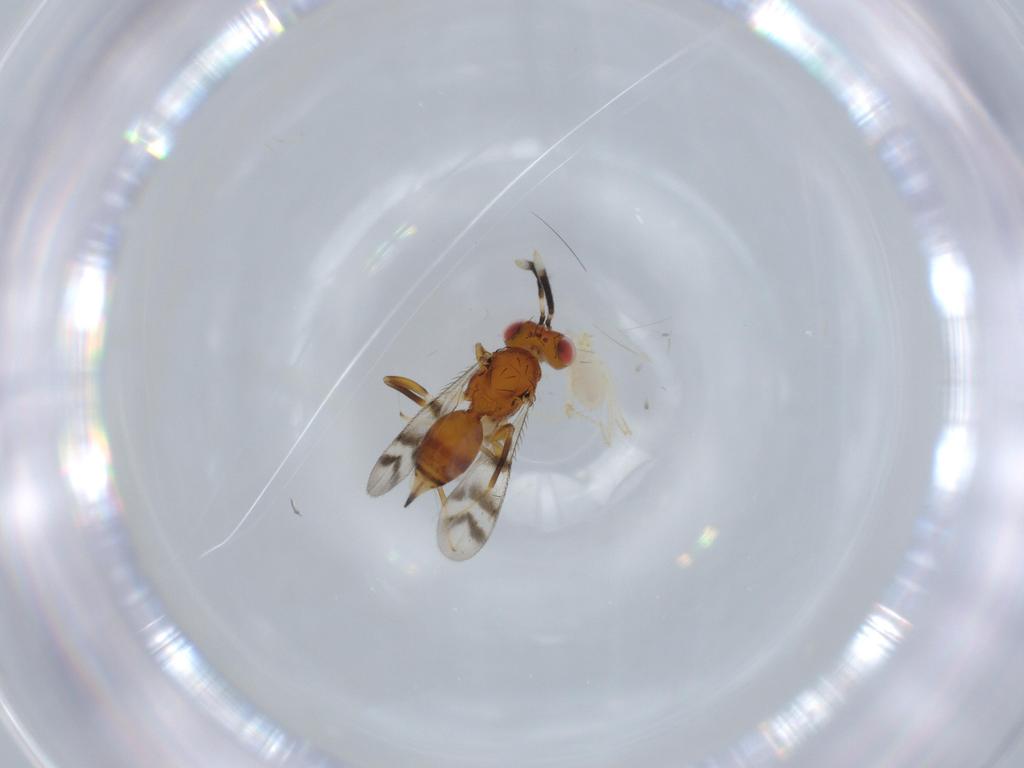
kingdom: Animalia
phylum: Arthropoda
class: Insecta
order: Hymenoptera
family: Diparidae
